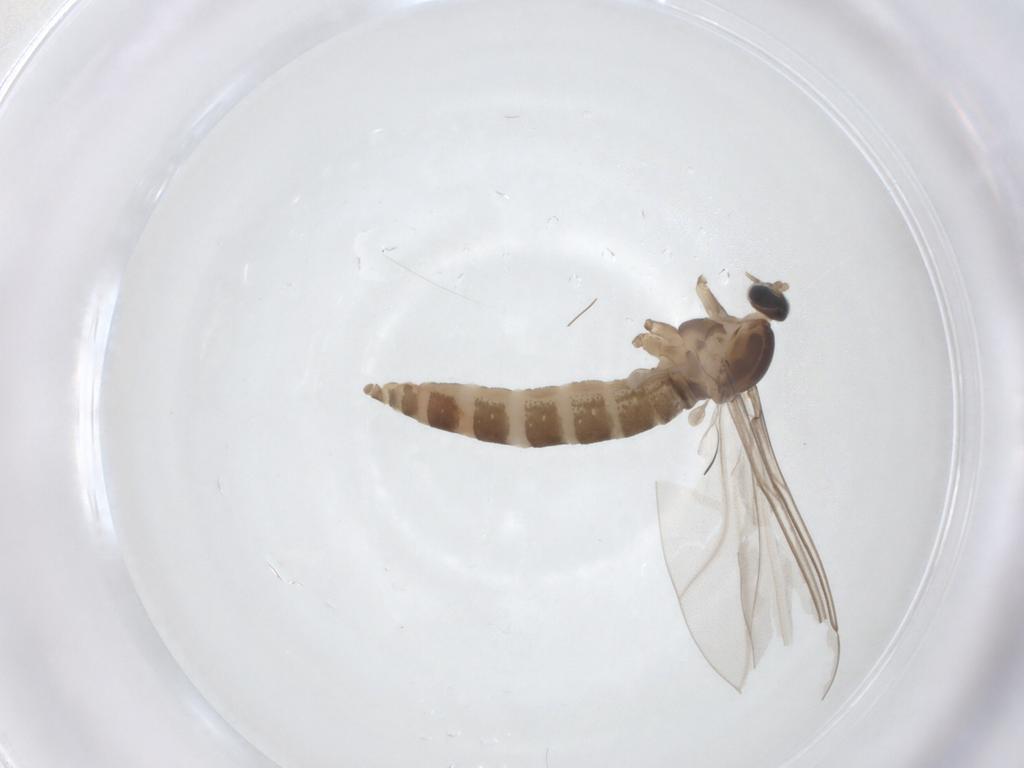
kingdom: Animalia
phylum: Arthropoda
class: Insecta
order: Diptera
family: Cecidomyiidae
